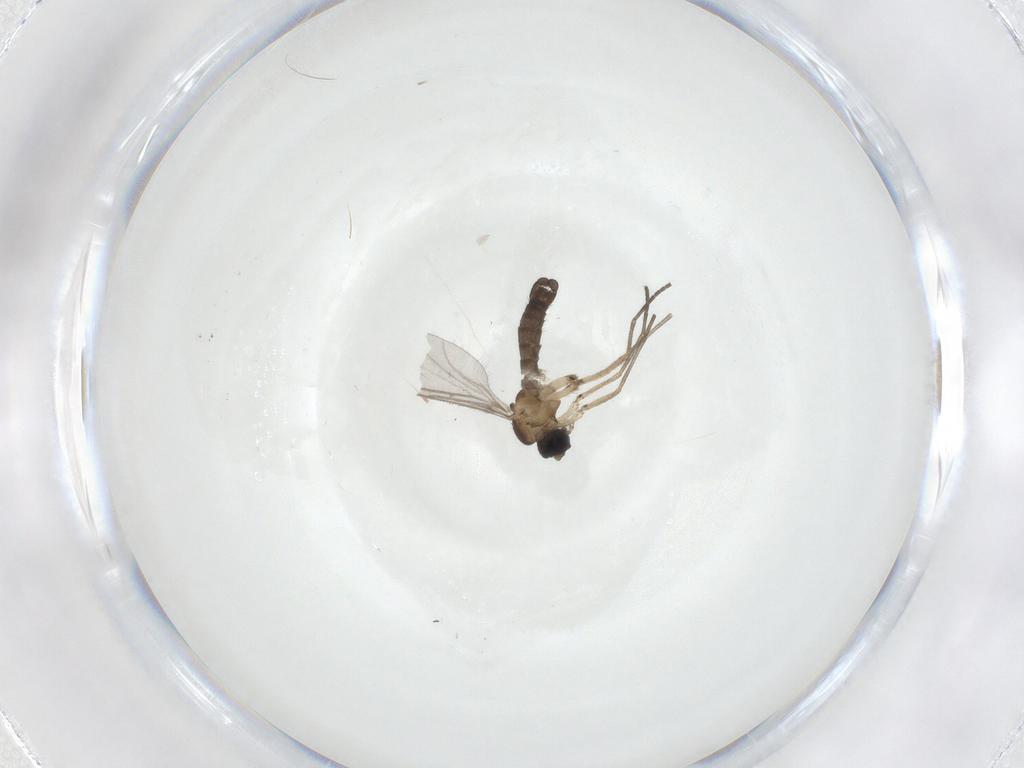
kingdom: Animalia
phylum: Arthropoda
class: Insecta
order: Diptera
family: Sciaridae
